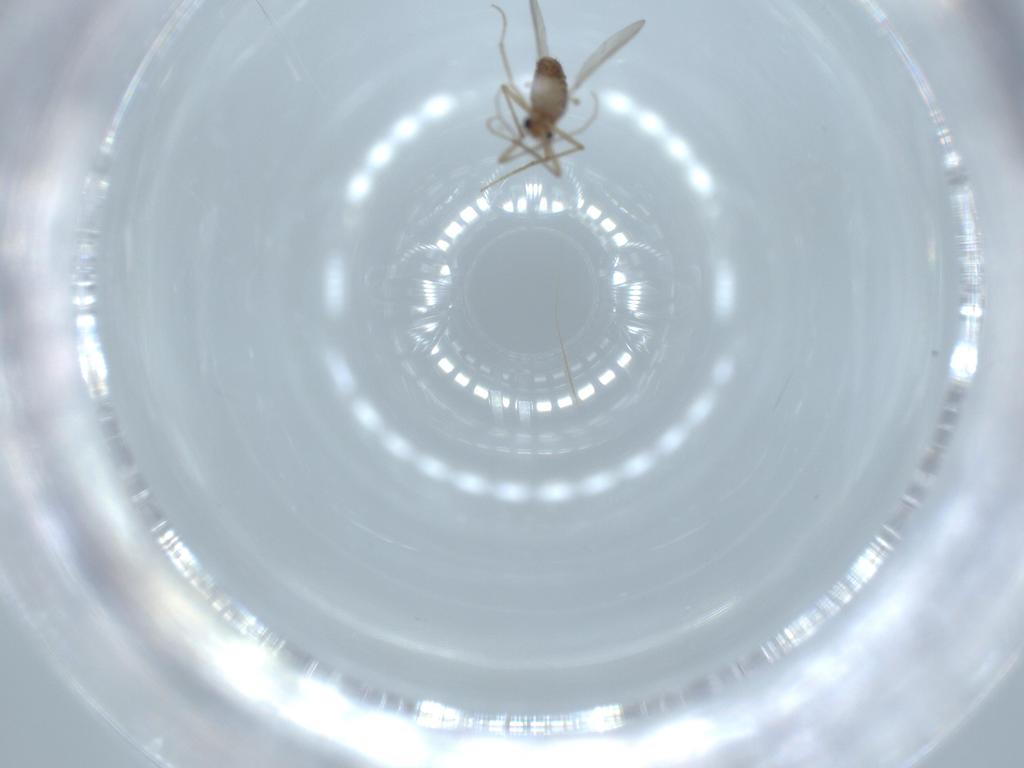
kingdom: Animalia
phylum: Arthropoda
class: Insecta
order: Diptera
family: Chironomidae
